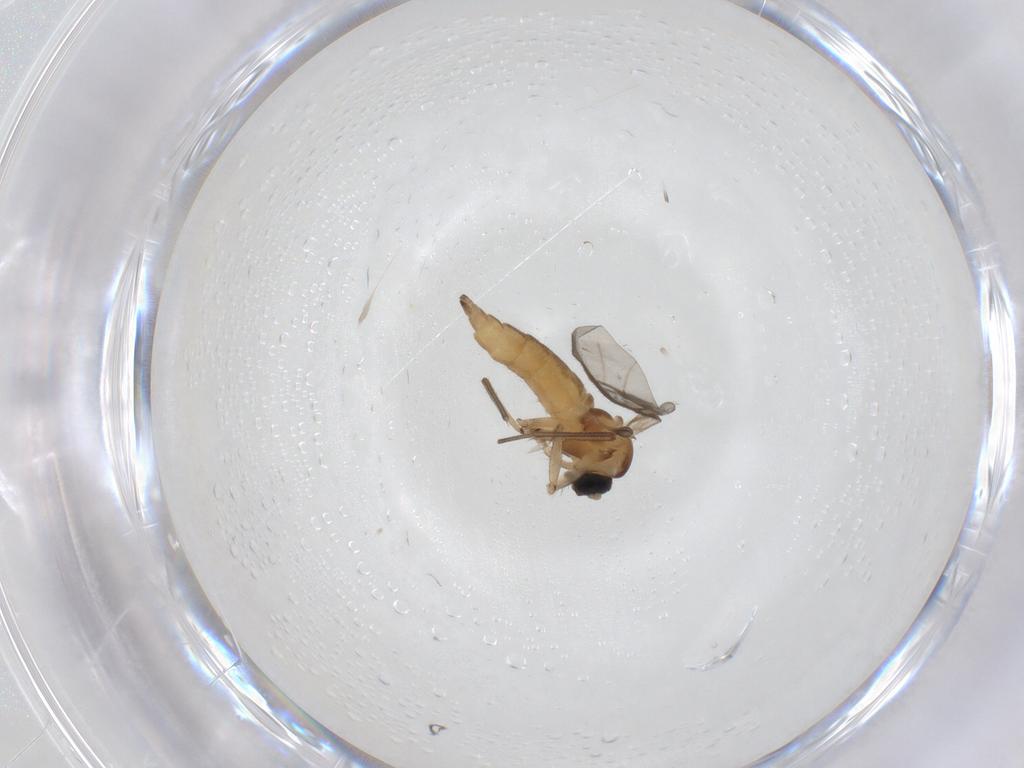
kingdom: Animalia
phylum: Arthropoda
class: Insecta
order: Diptera
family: Sciaridae
